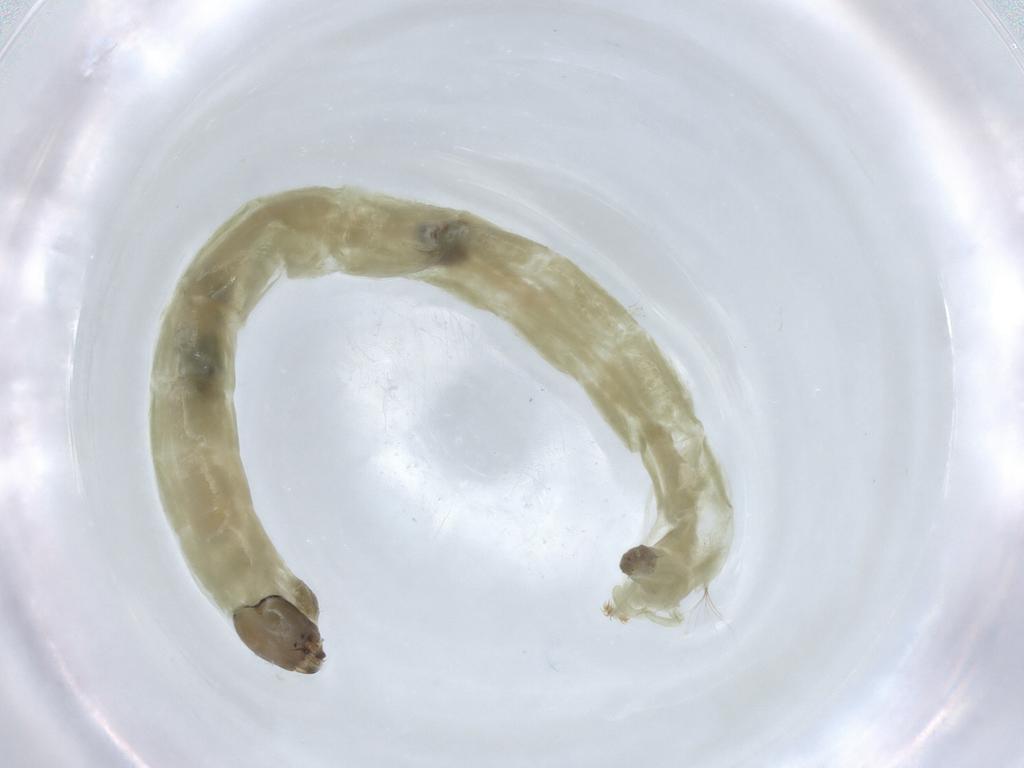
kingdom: Animalia
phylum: Arthropoda
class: Insecta
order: Diptera
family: Chironomidae
